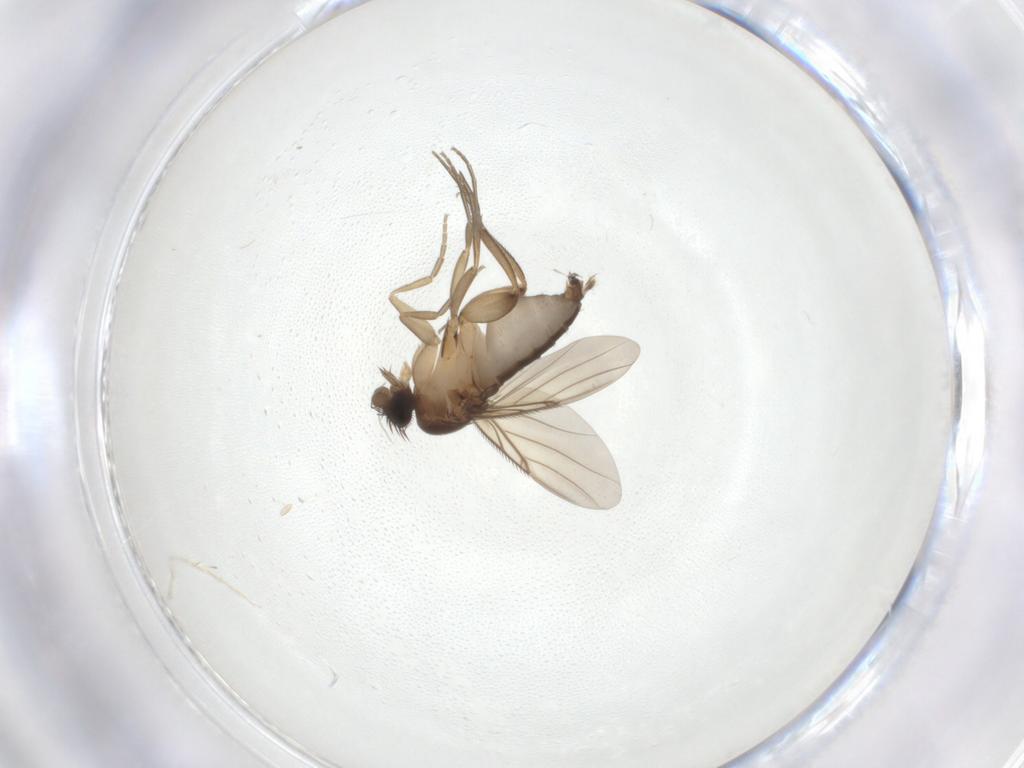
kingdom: Animalia
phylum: Arthropoda
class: Insecta
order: Diptera
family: Phoridae
